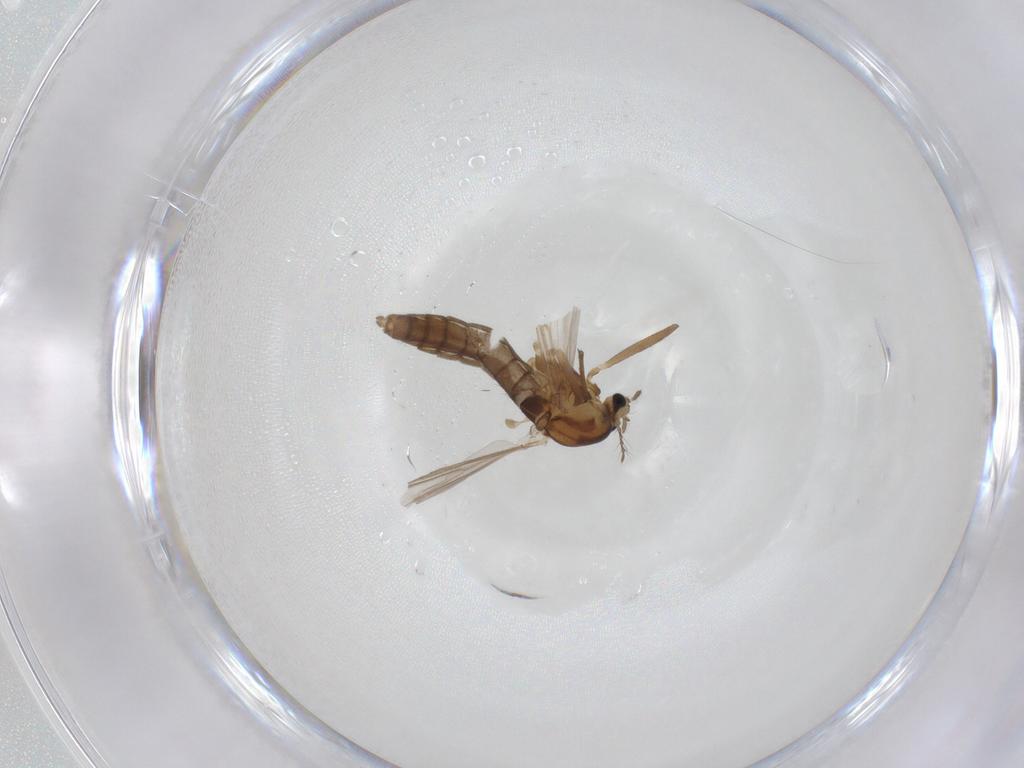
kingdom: Animalia
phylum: Arthropoda
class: Insecta
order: Diptera
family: Chironomidae
